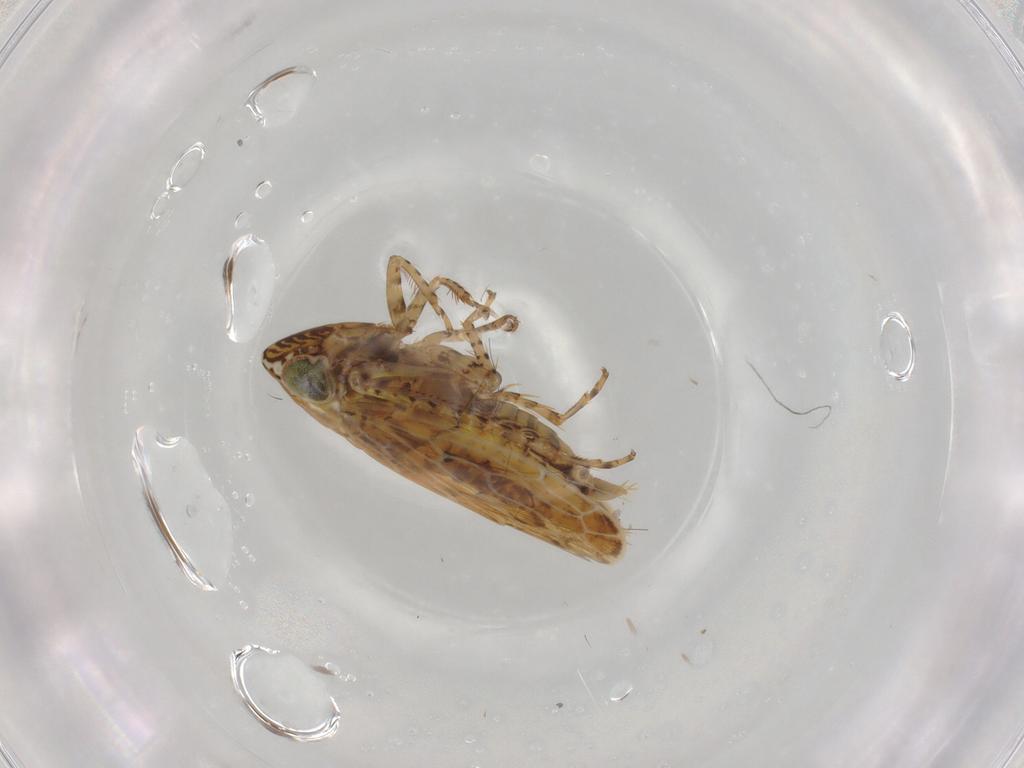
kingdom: Animalia
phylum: Arthropoda
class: Insecta
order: Hemiptera
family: Cicadellidae
